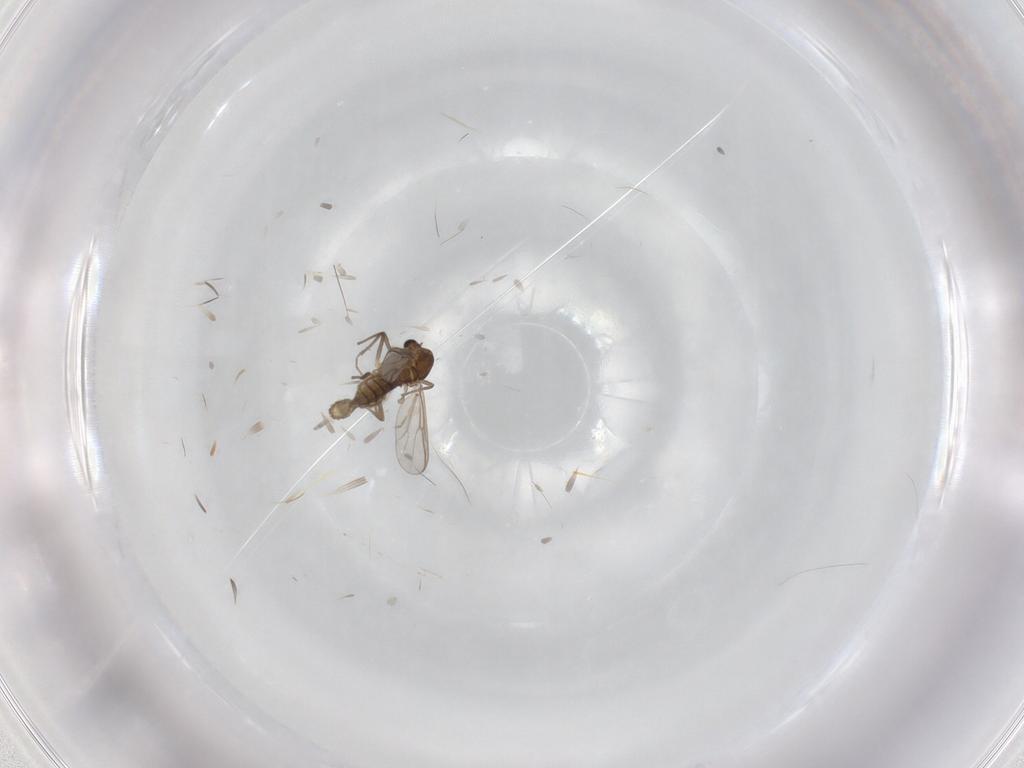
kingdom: Animalia
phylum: Arthropoda
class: Insecta
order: Diptera
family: Chironomidae
